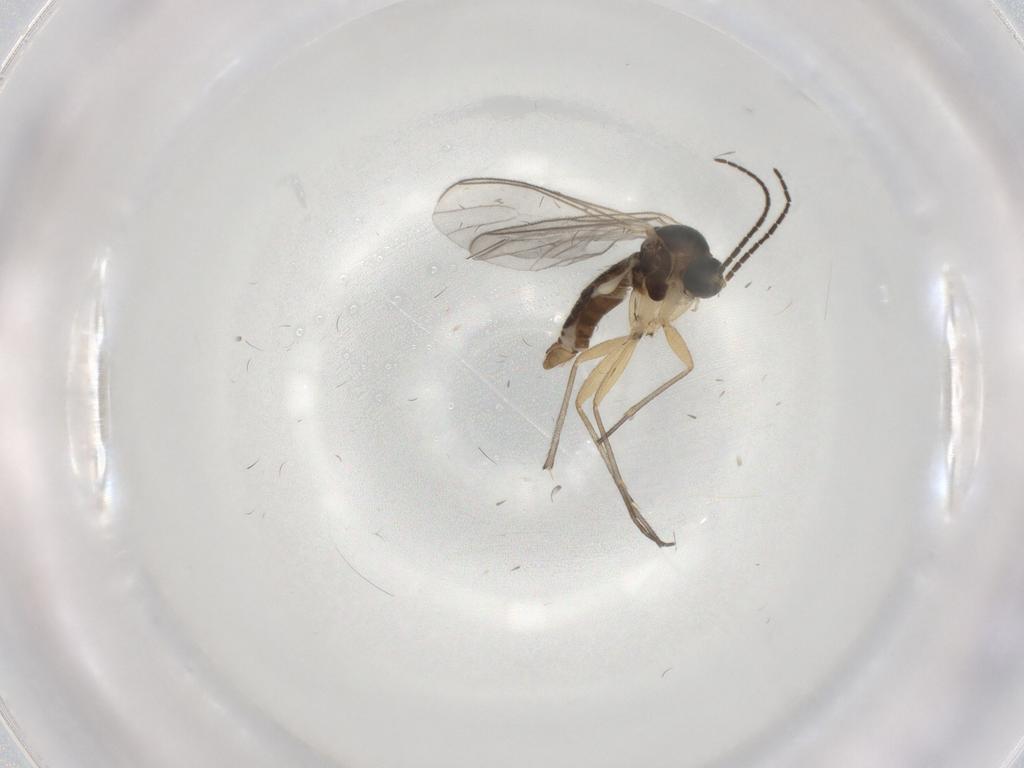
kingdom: Animalia
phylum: Arthropoda
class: Insecta
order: Diptera
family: Sciaridae
